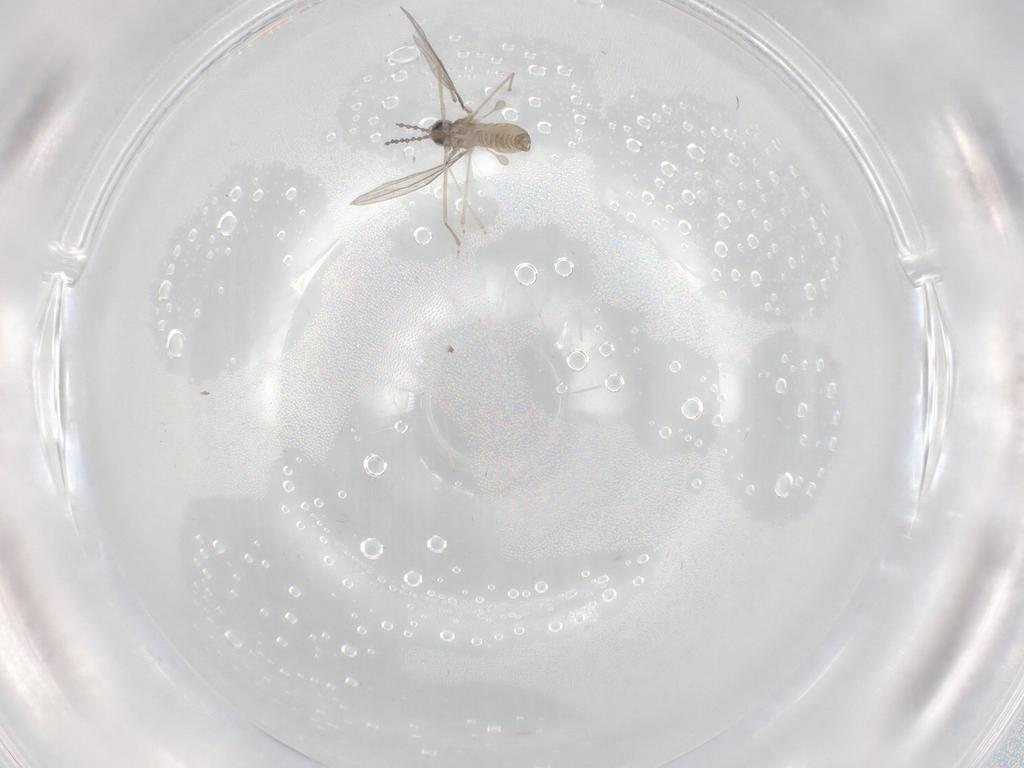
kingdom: Animalia
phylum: Arthropoda
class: Insecta
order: Diptera
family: Cecidomyiidae
